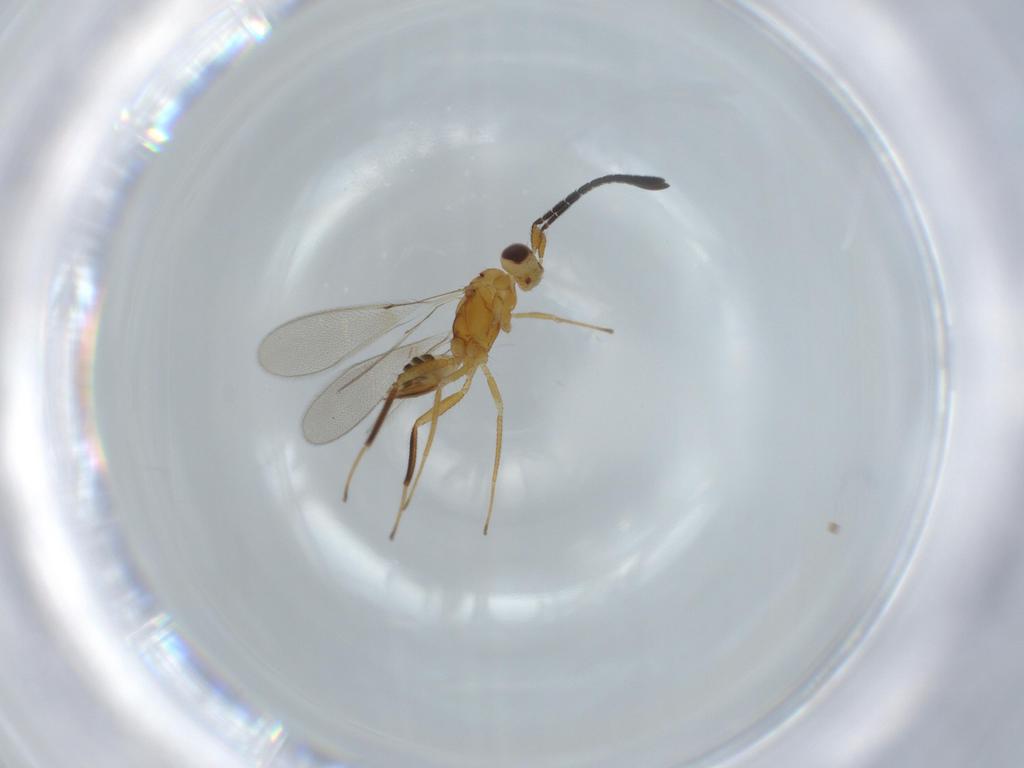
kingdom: Animalia
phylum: Arthropoda
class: Insecta
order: Hymenoptera
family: Mymaridae
